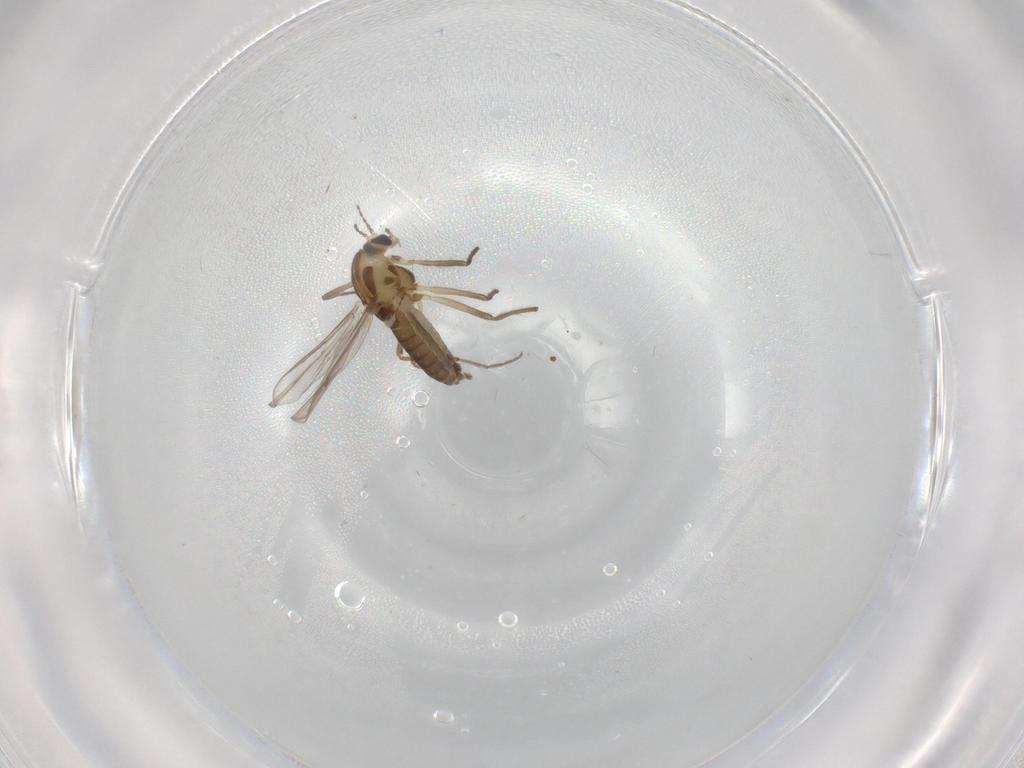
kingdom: Animalia
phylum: Arthropoda
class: Insecta
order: Diptera
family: Chironomidae
